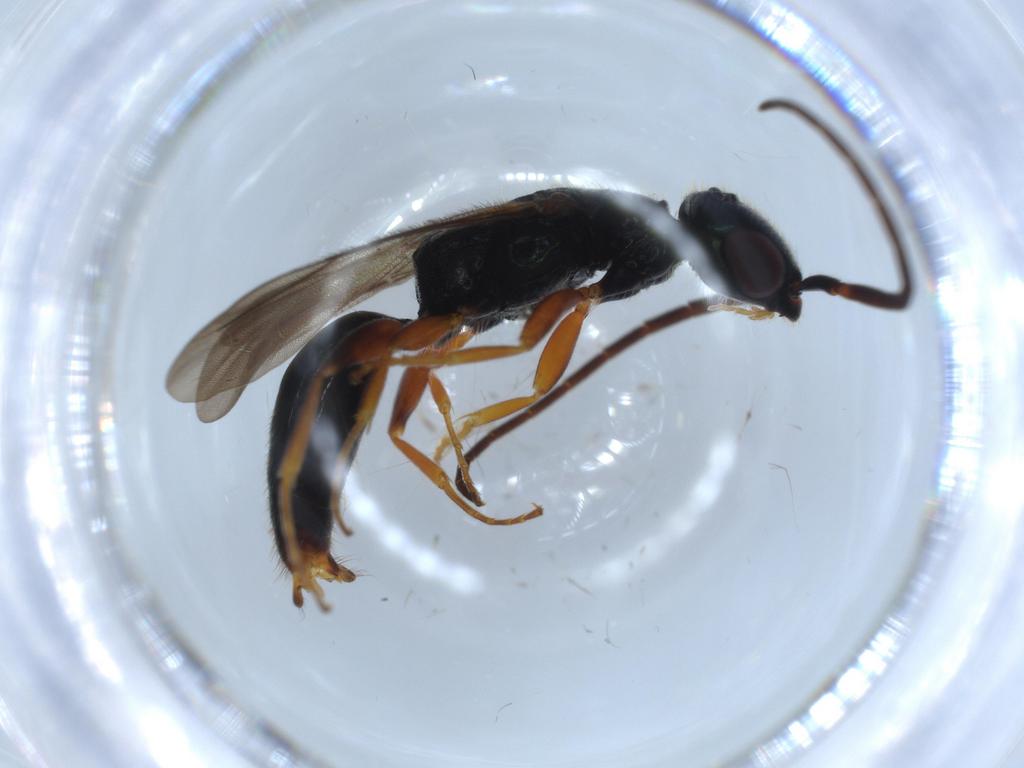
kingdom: Animalia
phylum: Arthropoda
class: Insecta
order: Hymenoptera
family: Bethylidae
